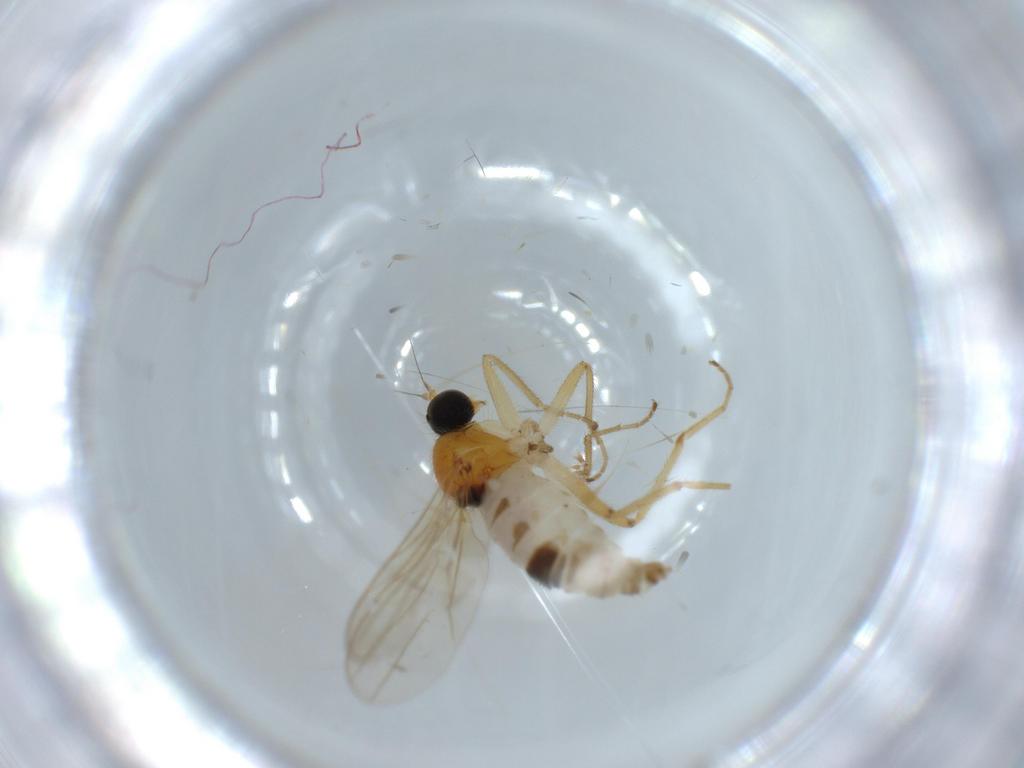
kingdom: Animalia
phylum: Arthropoda
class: Insecta
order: Diptera
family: Hybotidae
